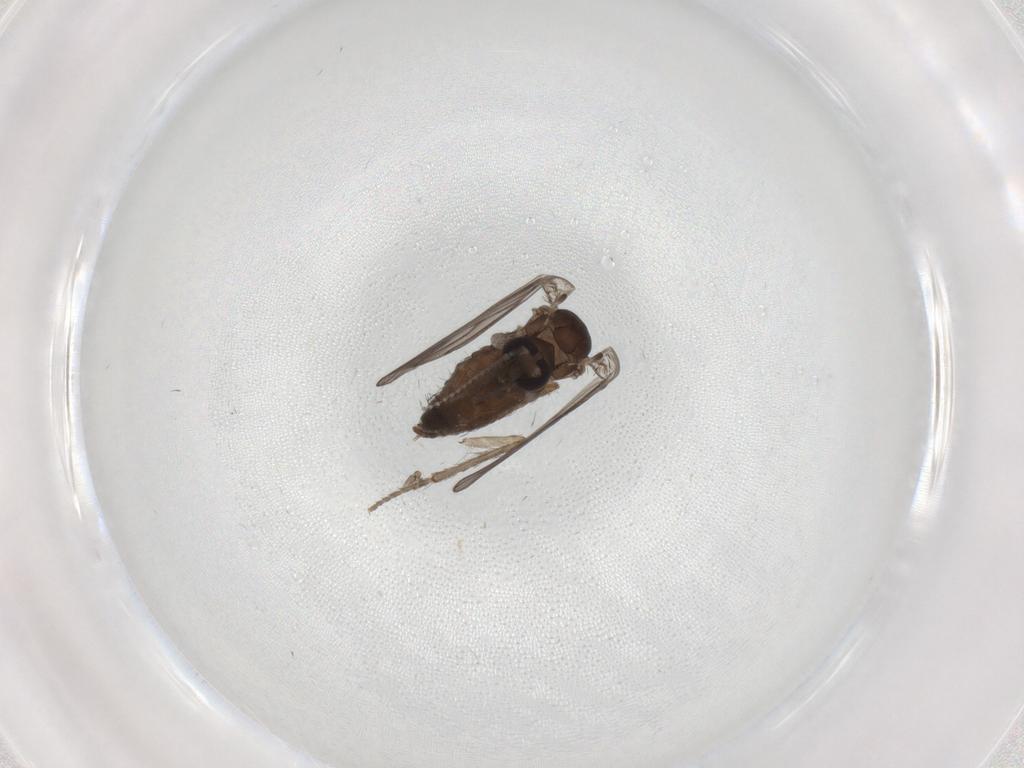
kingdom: Animalia
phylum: Arthropoda
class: Insecta
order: Diptera
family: Psychodidae
